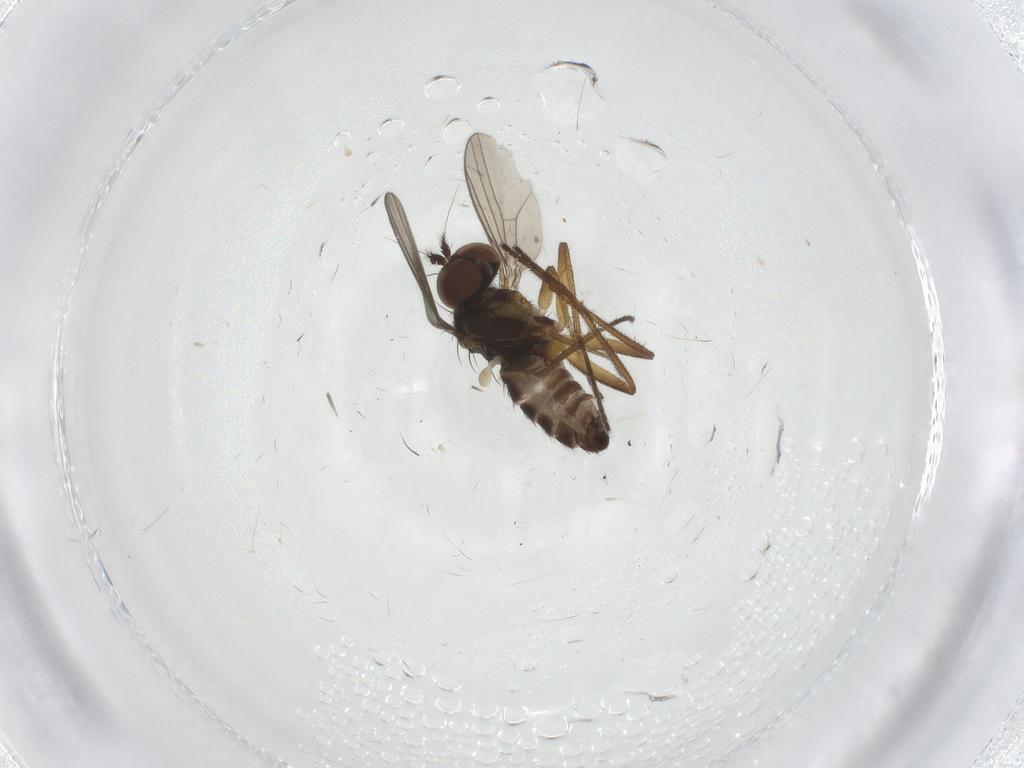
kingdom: Animalia
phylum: Arthropoda
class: Insecta
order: Diptera
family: Dolichopodidae
